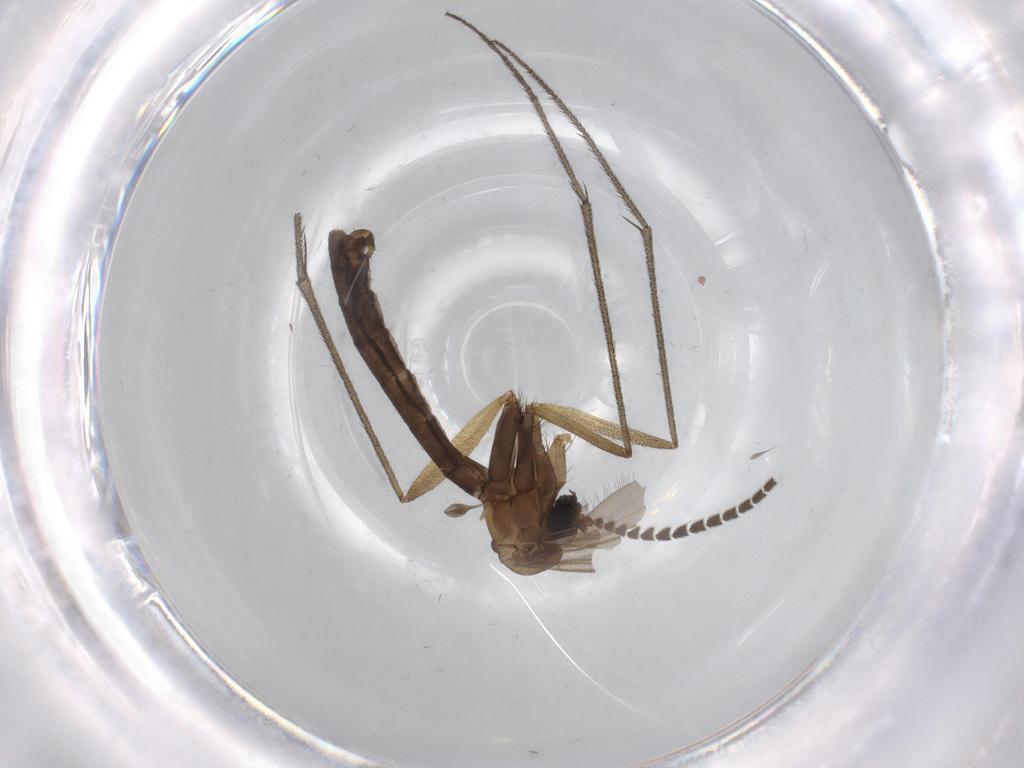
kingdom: Animalia
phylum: Arthropoda
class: Insecta
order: Diptera
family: Ditomyiidae
